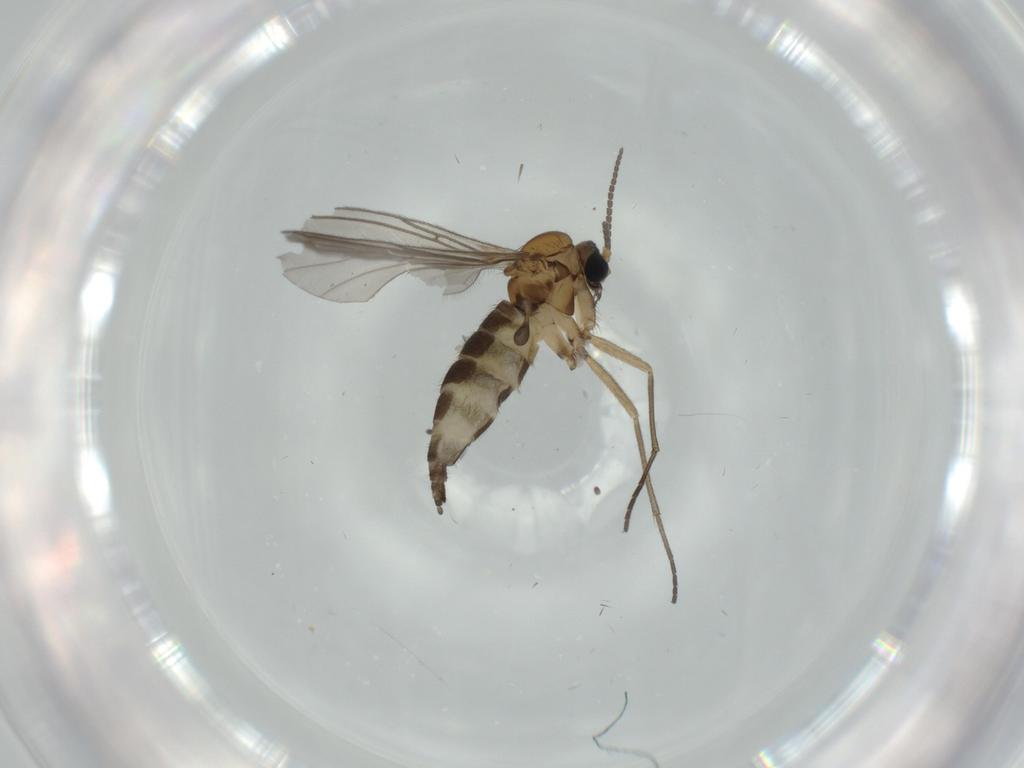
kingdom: Animalia
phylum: Arthropoda
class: Insecta
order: Diptera
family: Sciaridae
